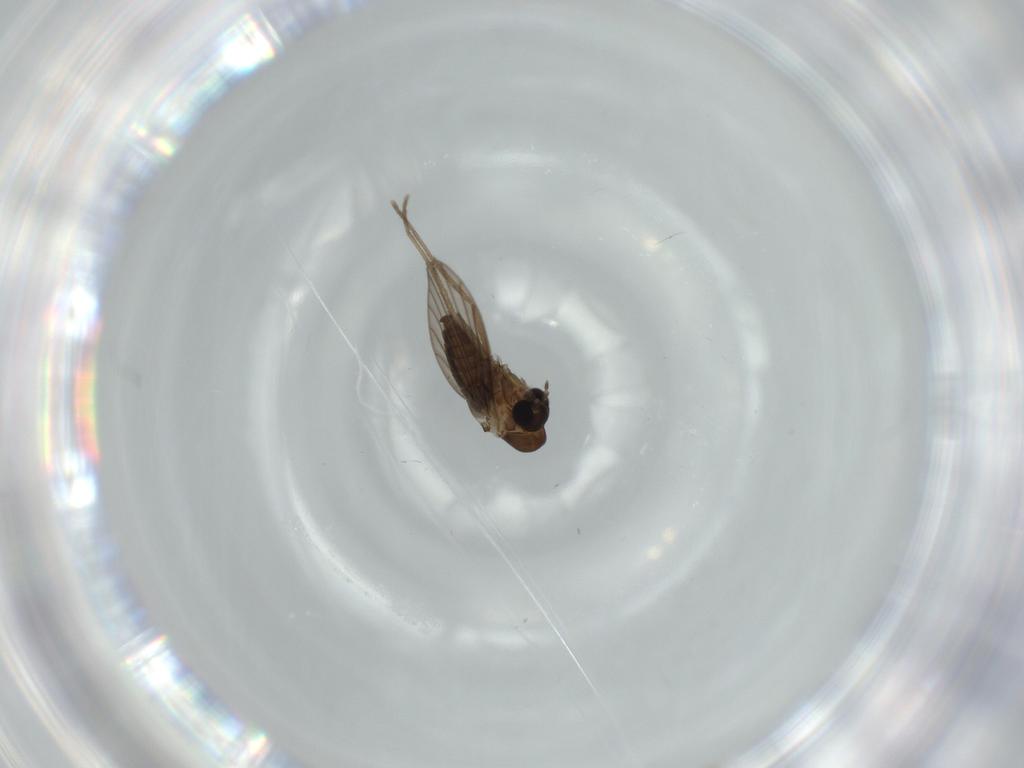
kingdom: Animalia
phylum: Arthropoda
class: Insecta
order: Diptera
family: Psychodidae
